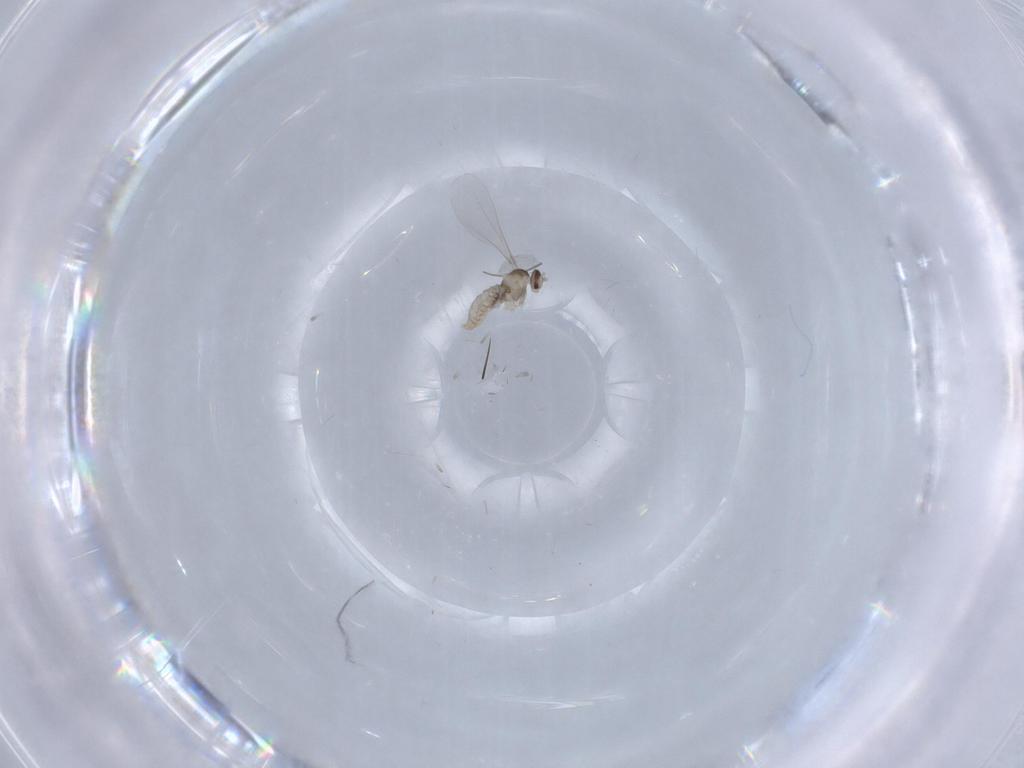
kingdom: Animalia
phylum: Arthropoda
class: Insecta
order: Diptera
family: Cecidomyiidae
